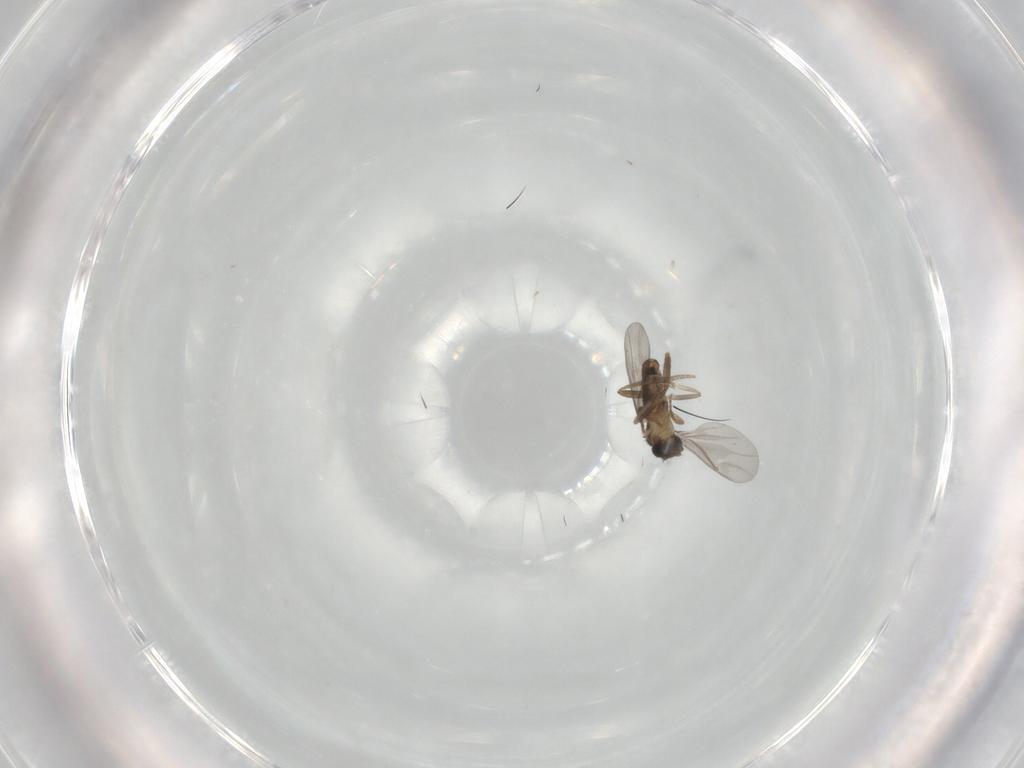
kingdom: Animalia
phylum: Arthropoda
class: Insecta
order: Diptera
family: Ceratopogonidae
